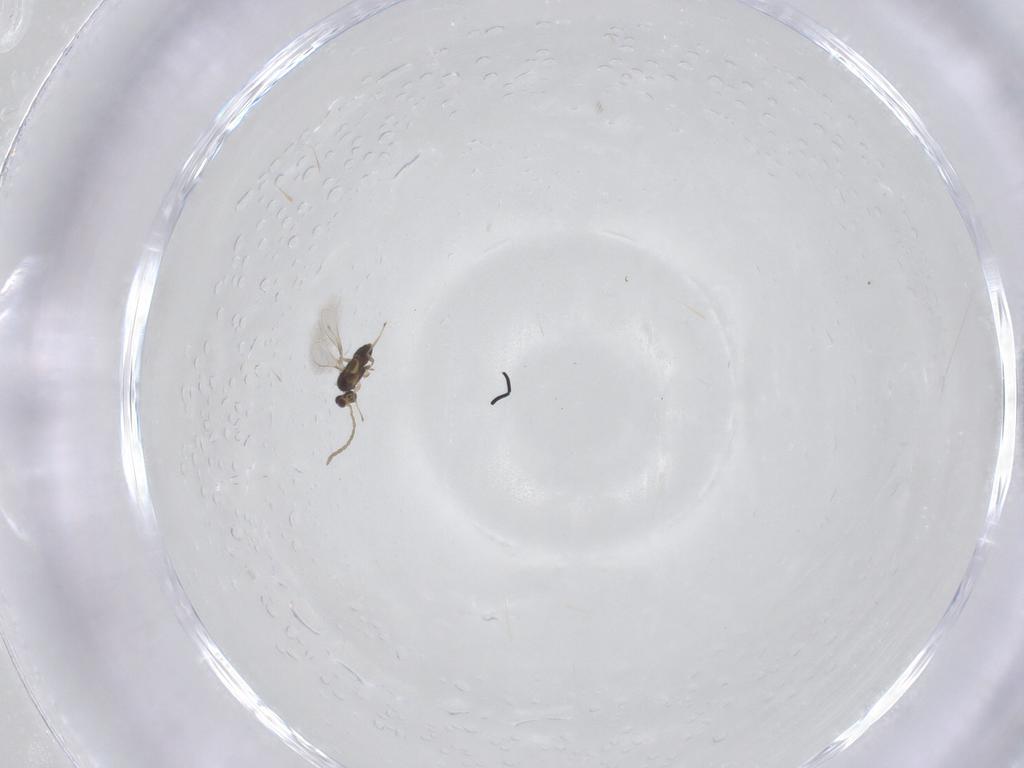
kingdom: Animalia
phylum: Arthropoda
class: Insecta
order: Hymenoptera
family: Mymaridae
